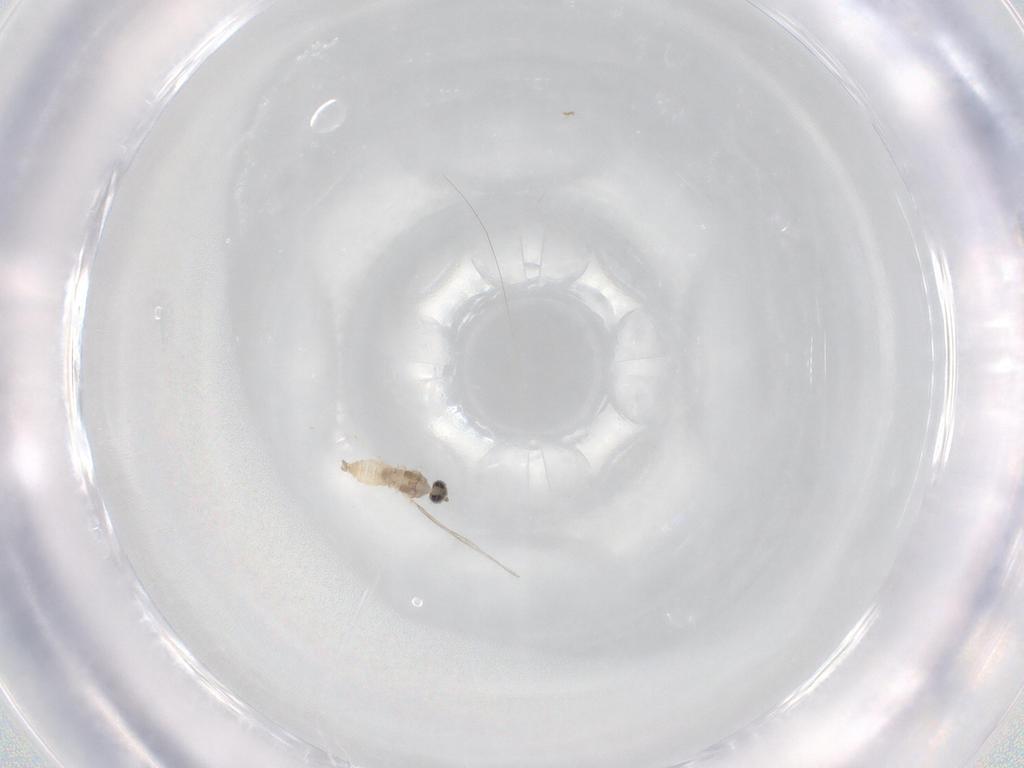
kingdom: Animalia
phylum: Arthropoda
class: Insecta
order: Diptera
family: Cecidomyiidae
